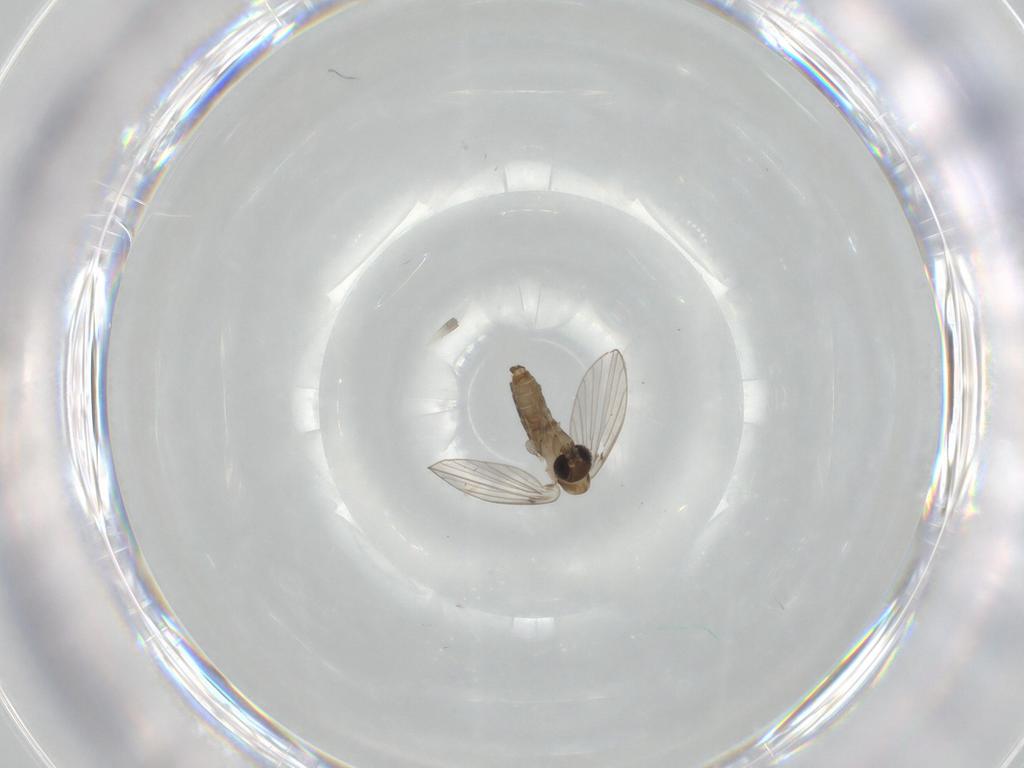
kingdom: Animalia
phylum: Arthropoda
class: Insecta
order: Diptera
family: Psychodidae
